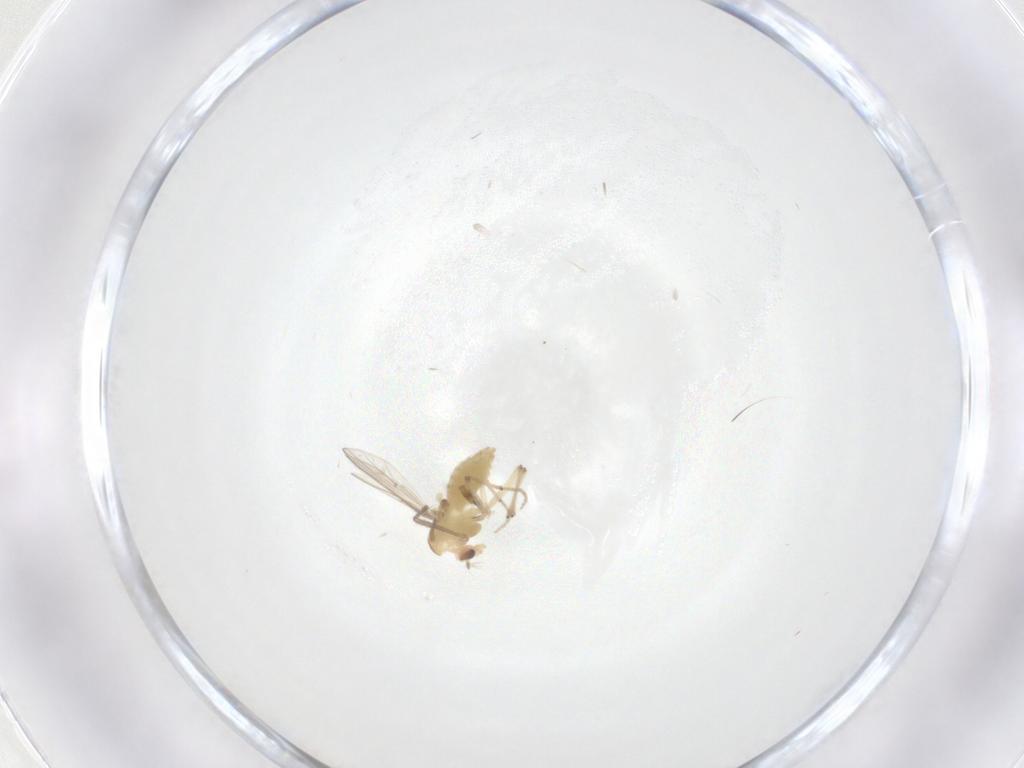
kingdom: Animalia
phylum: Arthropoda
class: Insecta
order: Diptera
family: Chironomidae
